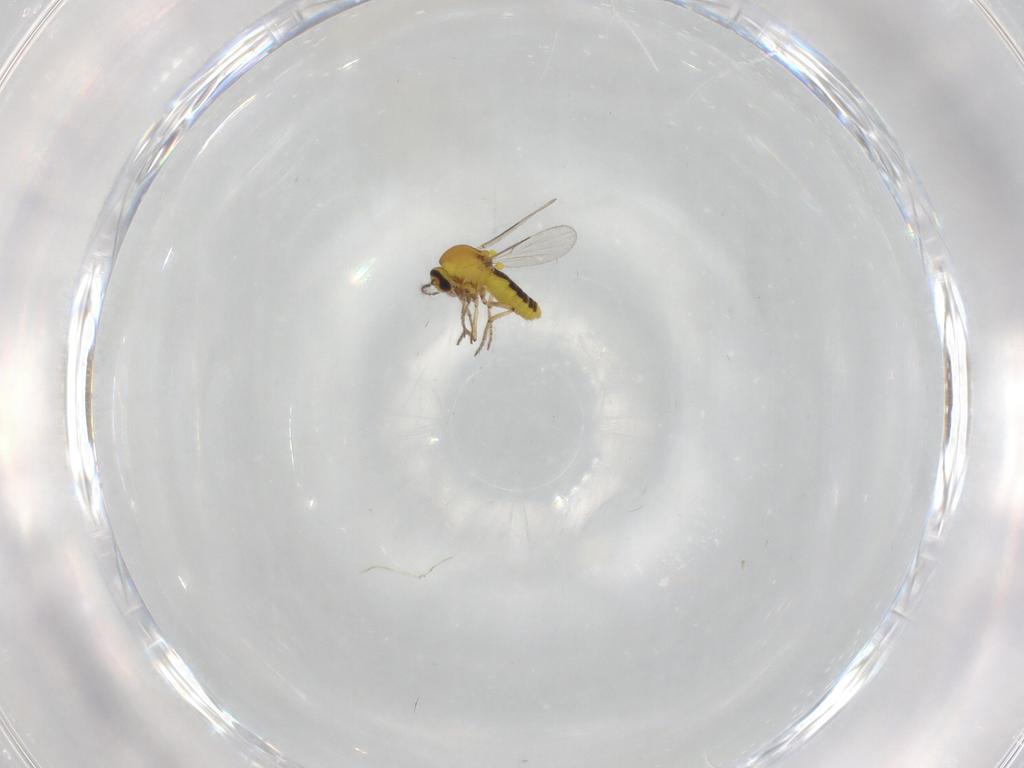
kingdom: Animalia
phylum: Arthropoda
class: Insecta
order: Diptera
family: Ceratopogonidae
